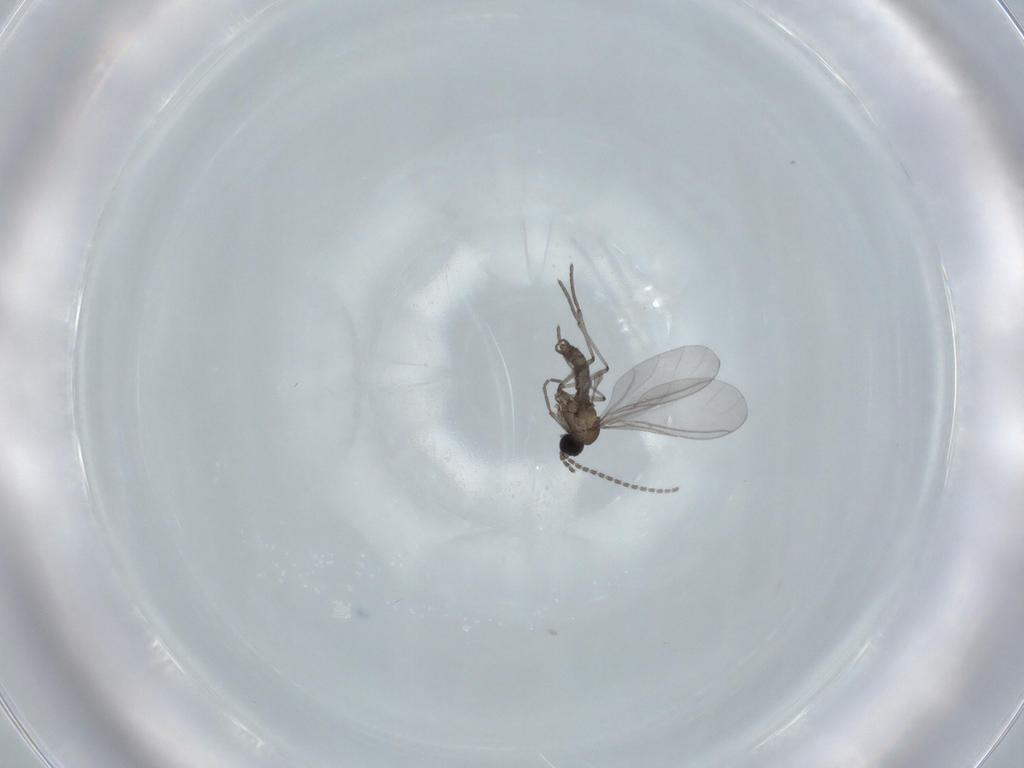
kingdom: Animalia
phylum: Arthropoda
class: Insecta
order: Diptera
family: Sciaridae
